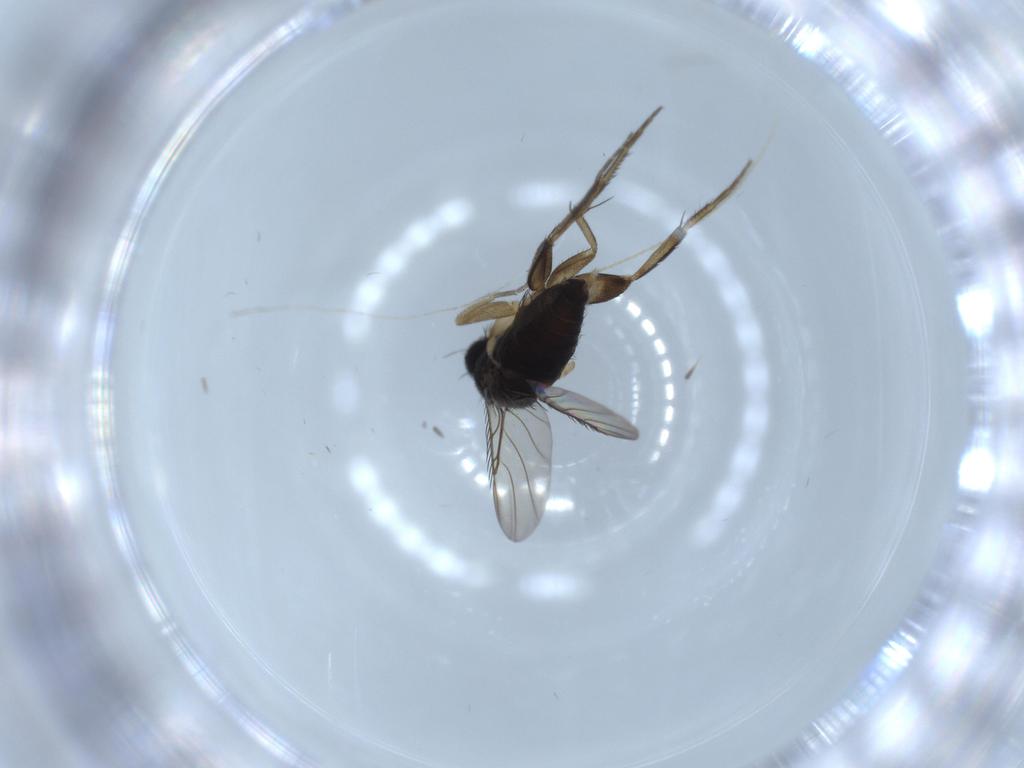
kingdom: Animalia
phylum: Arthropoda
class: Insecta
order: Diptera
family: Phoridae
